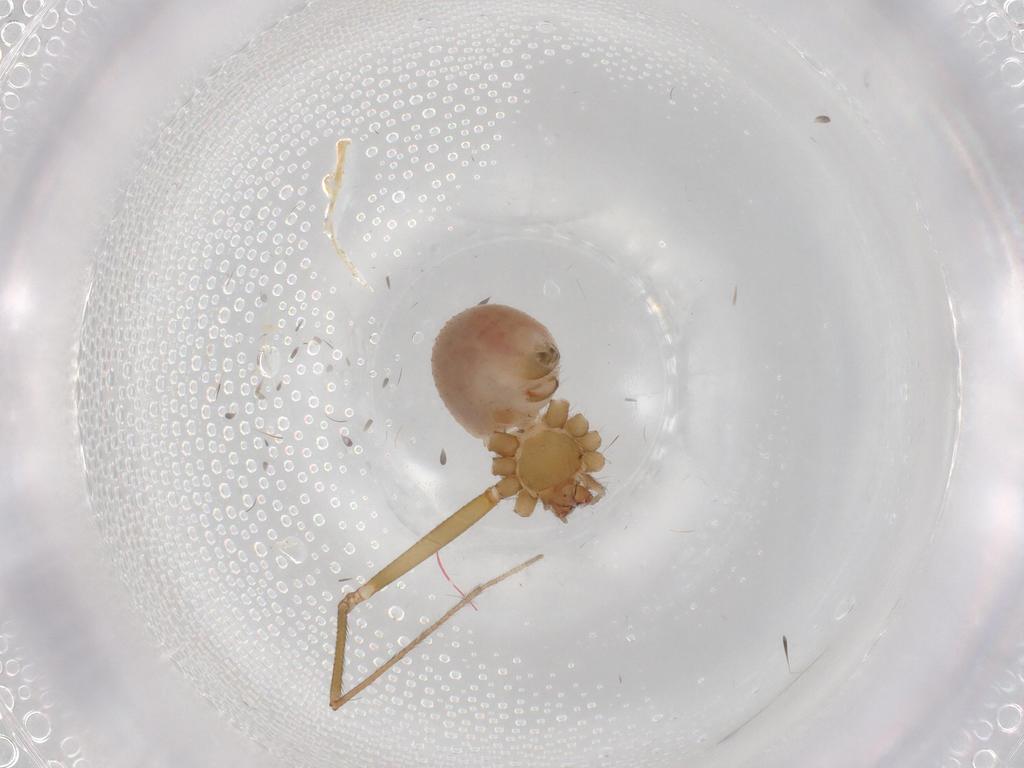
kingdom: Animalia
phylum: Arthropoda
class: Arachnida
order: Araneae
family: Pholcidae
